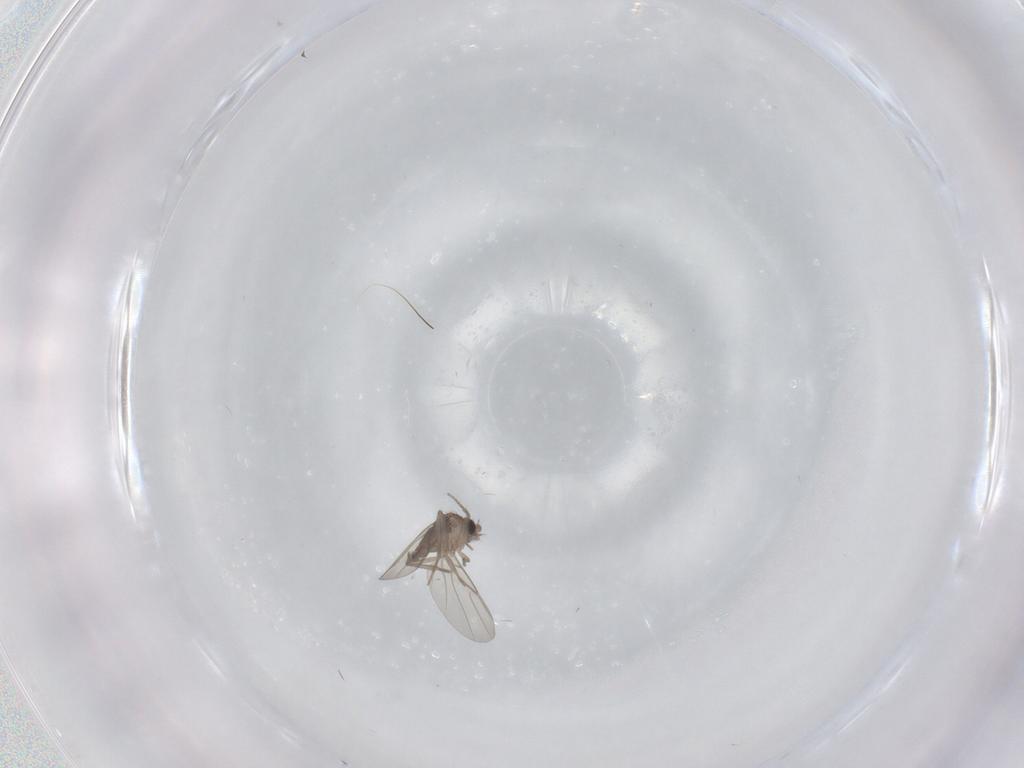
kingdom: Animalia
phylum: Arthropoda
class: Insecta
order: Diptera
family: Phoridae
